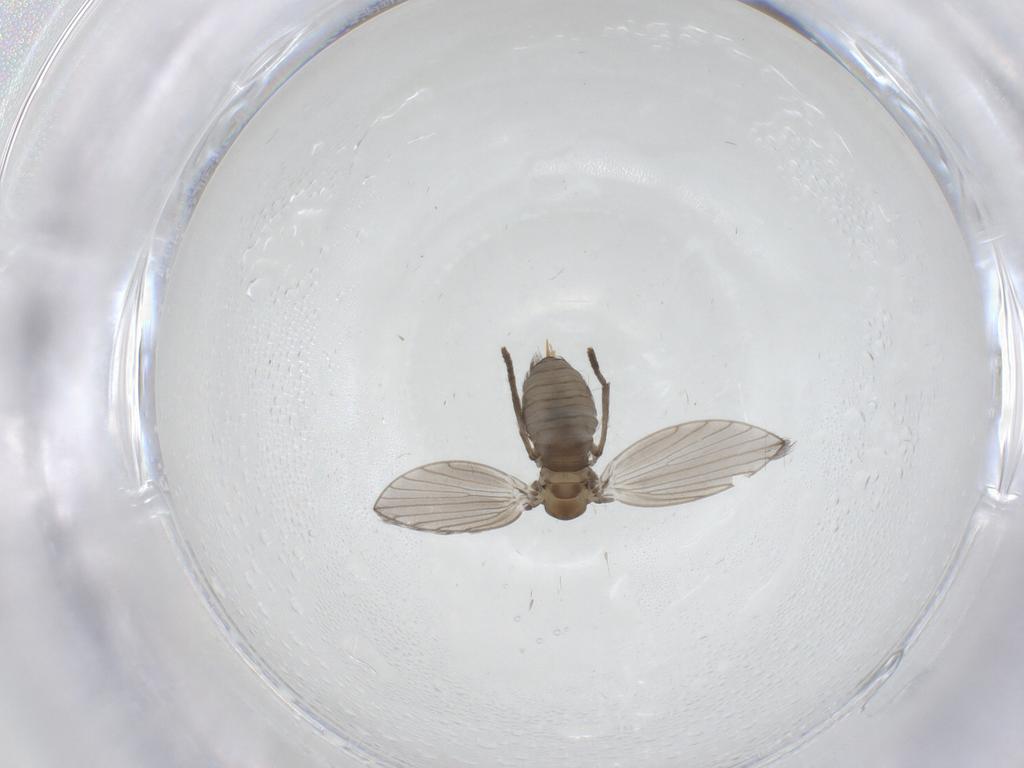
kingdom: Animalia
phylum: Arthropoda
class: Insecta
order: Diptera
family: Psychodidae
